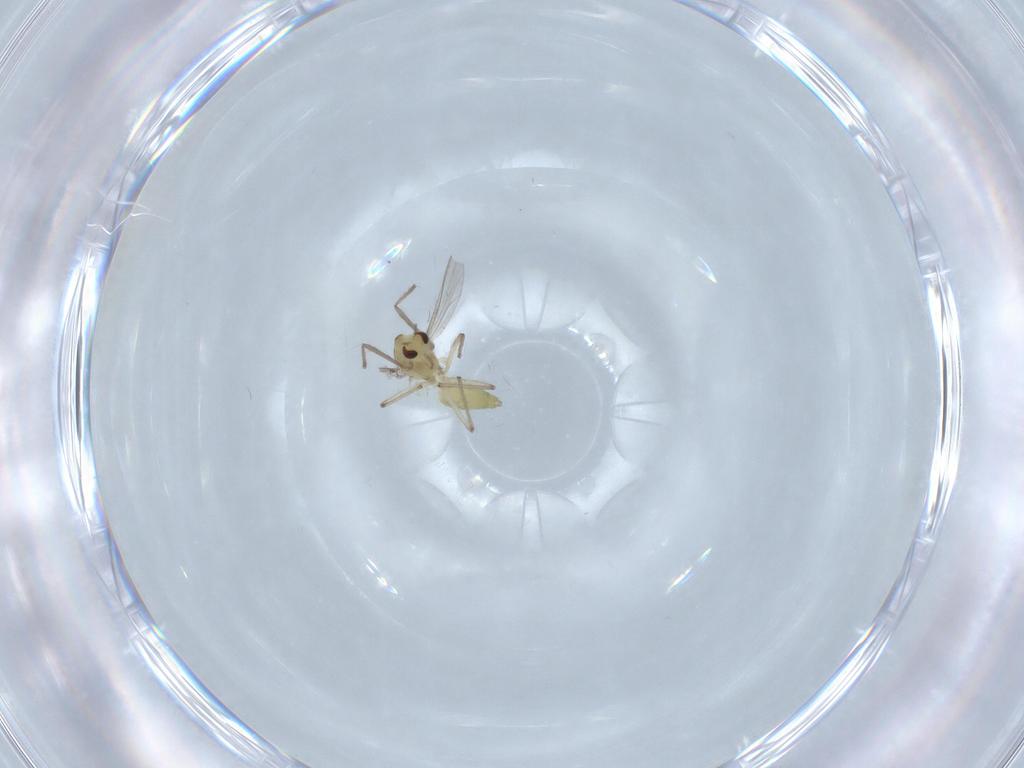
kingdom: Animalia
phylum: Arthropoda
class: Insecta
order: Diptera
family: Chironomidae
